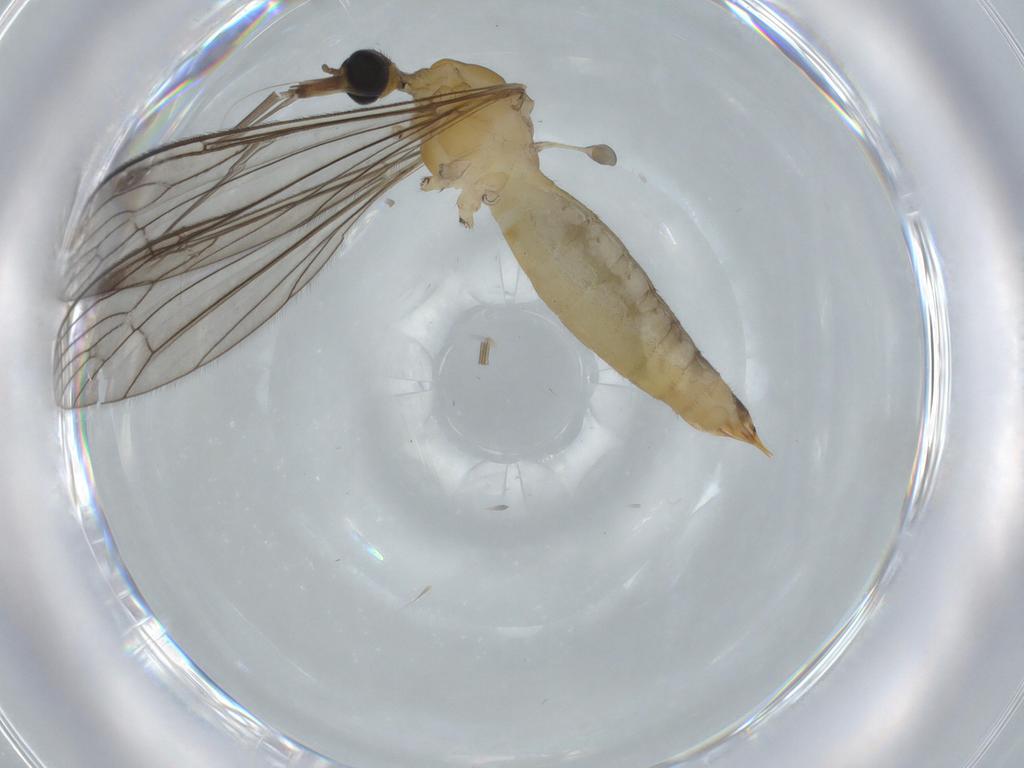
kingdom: Animalia
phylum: Arthropoda
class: Insecta
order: Diptera
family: Chironomidae
